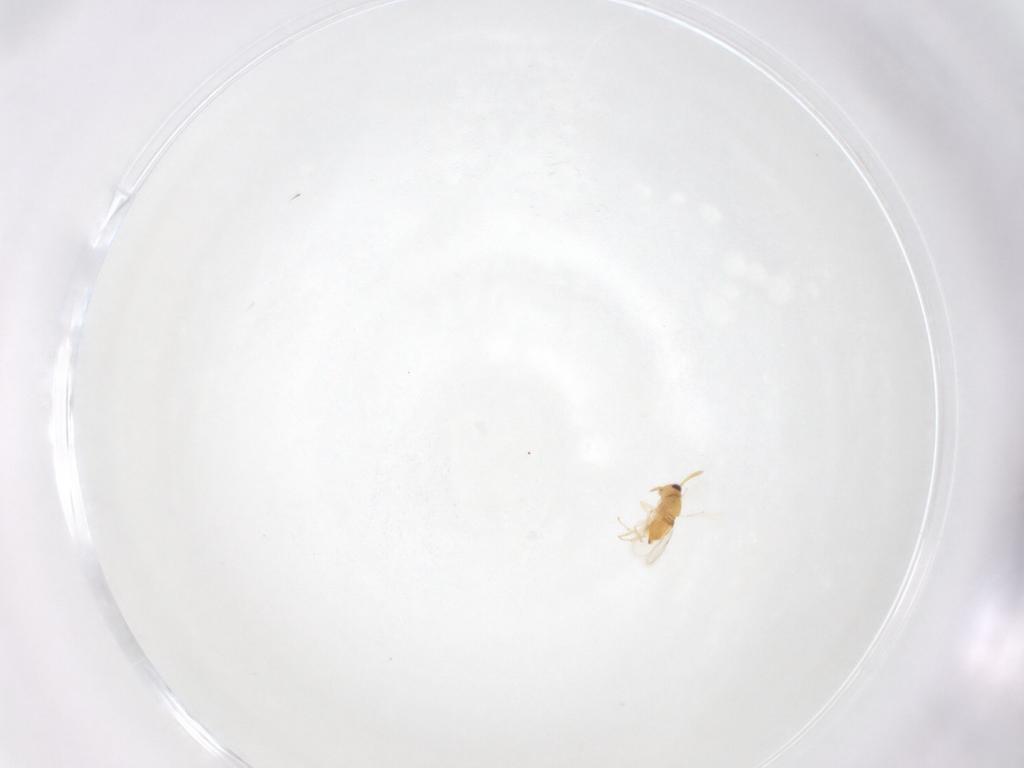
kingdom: Animalia
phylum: Arthropoda
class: Insecta
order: Hymenoptera
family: Aphelinidae
